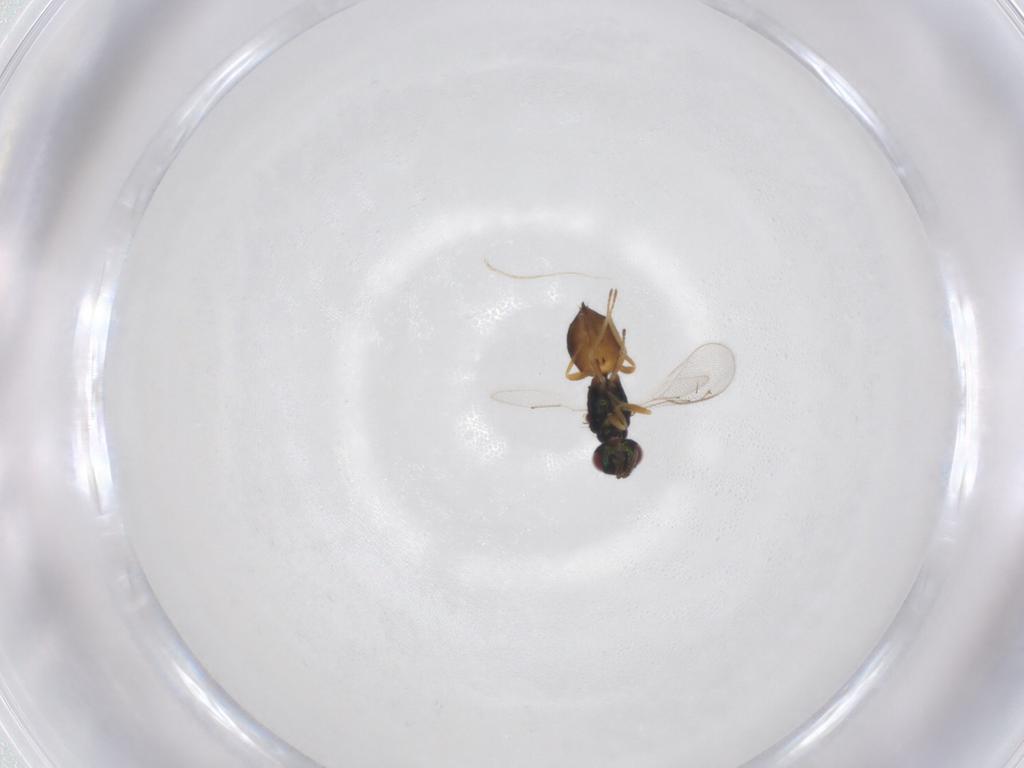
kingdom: Animalia
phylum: Arthropoda
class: Insecta
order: Hymenoptera
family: Eulophidae
